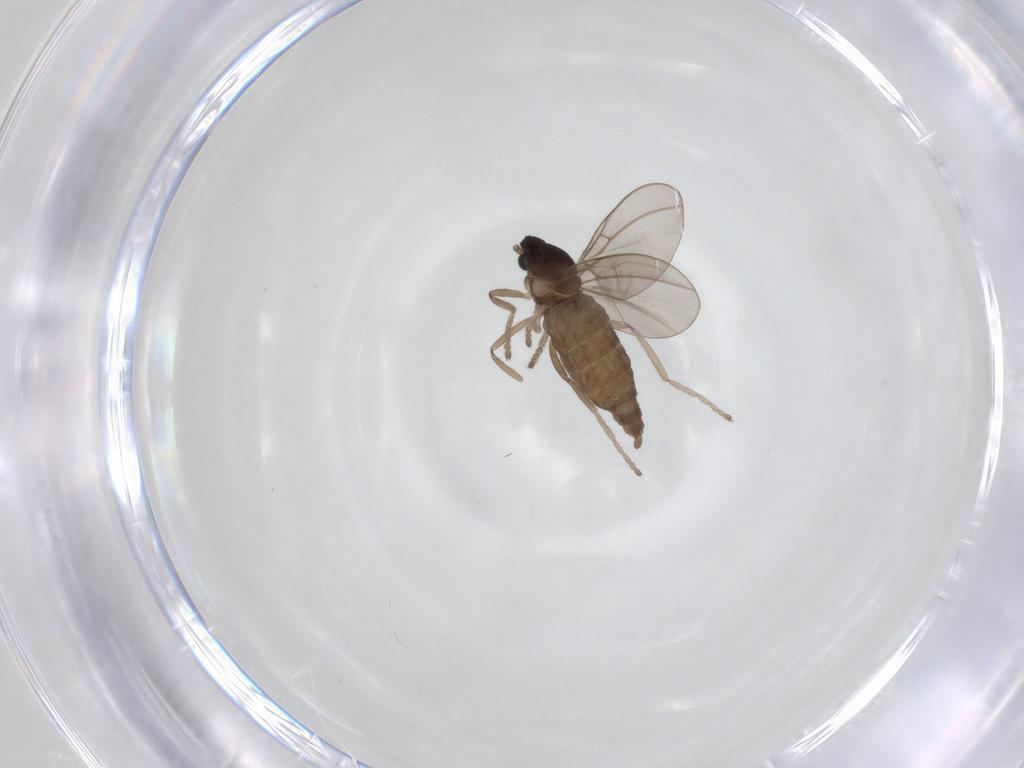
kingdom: Animalia
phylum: Arthropoda
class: Insecta
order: Diptera
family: Cecidomyiidae
